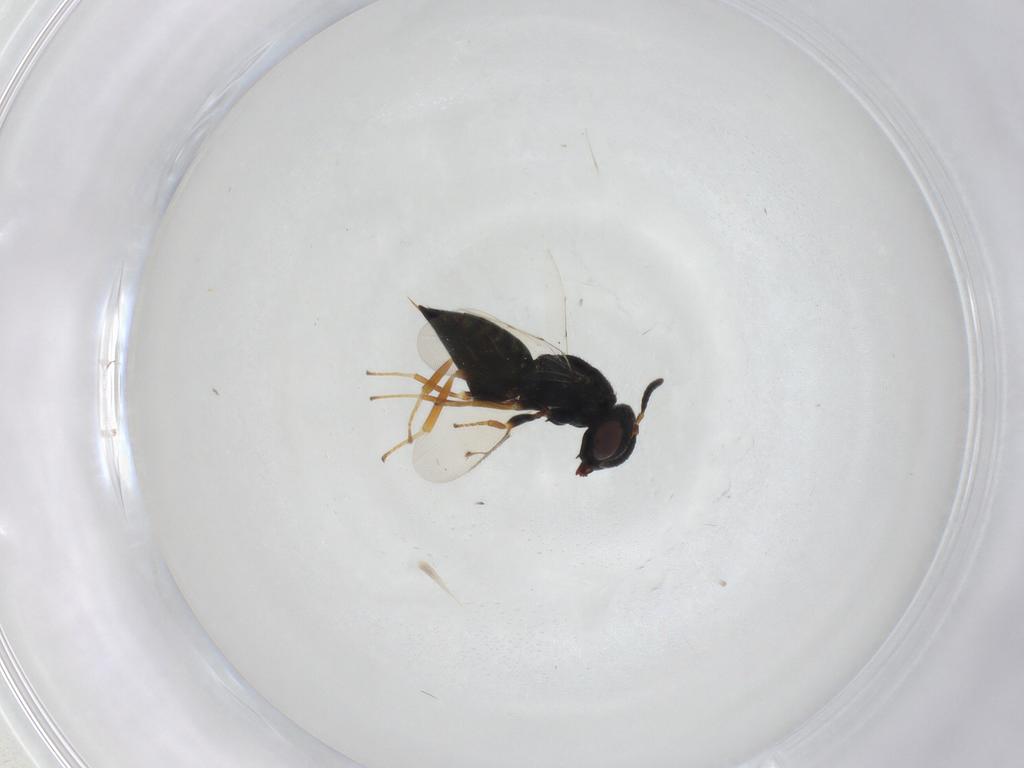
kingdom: Animalia
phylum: Arthropoda
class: Insecta
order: Hymenoptera
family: Pteromalidae
